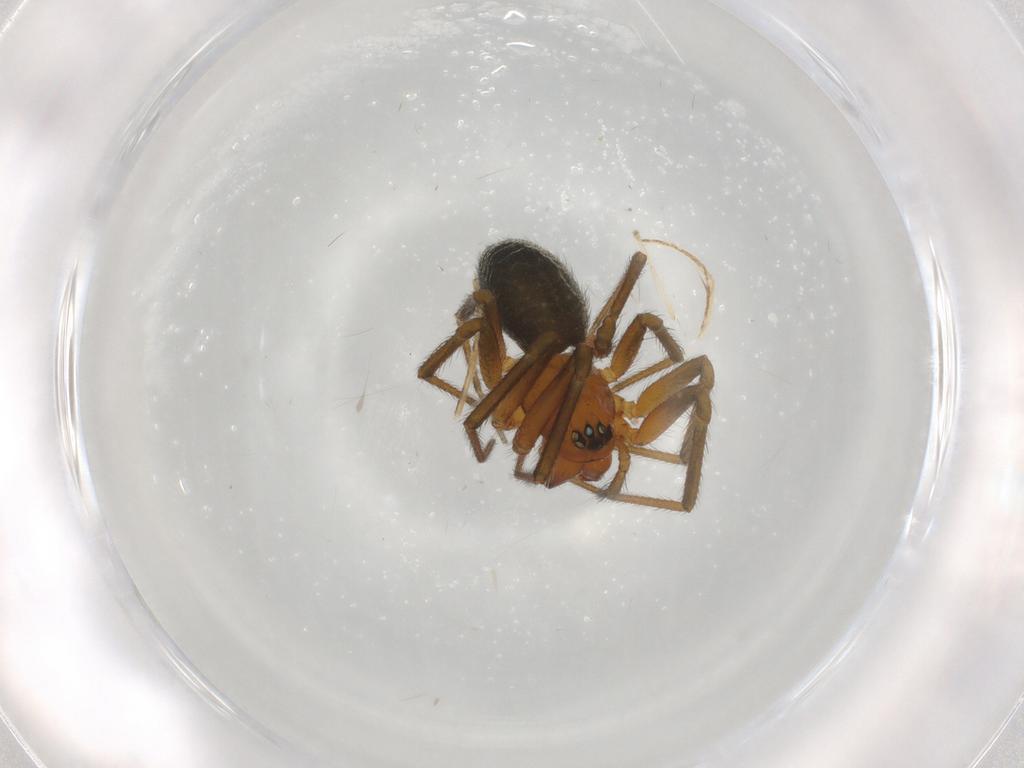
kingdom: Animalia
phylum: Arthropoda
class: Arachnida
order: Araneae
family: Linyphiidae
